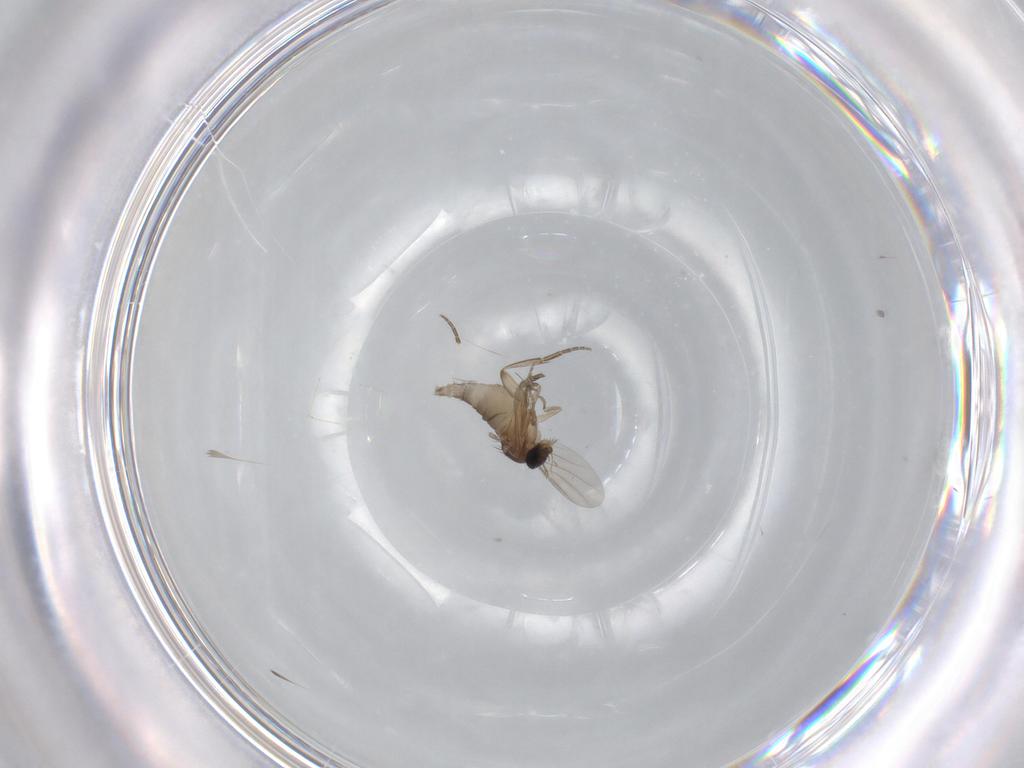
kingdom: Animalia
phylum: Arthropoda
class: Insecta
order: Diptera
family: Phoridae
